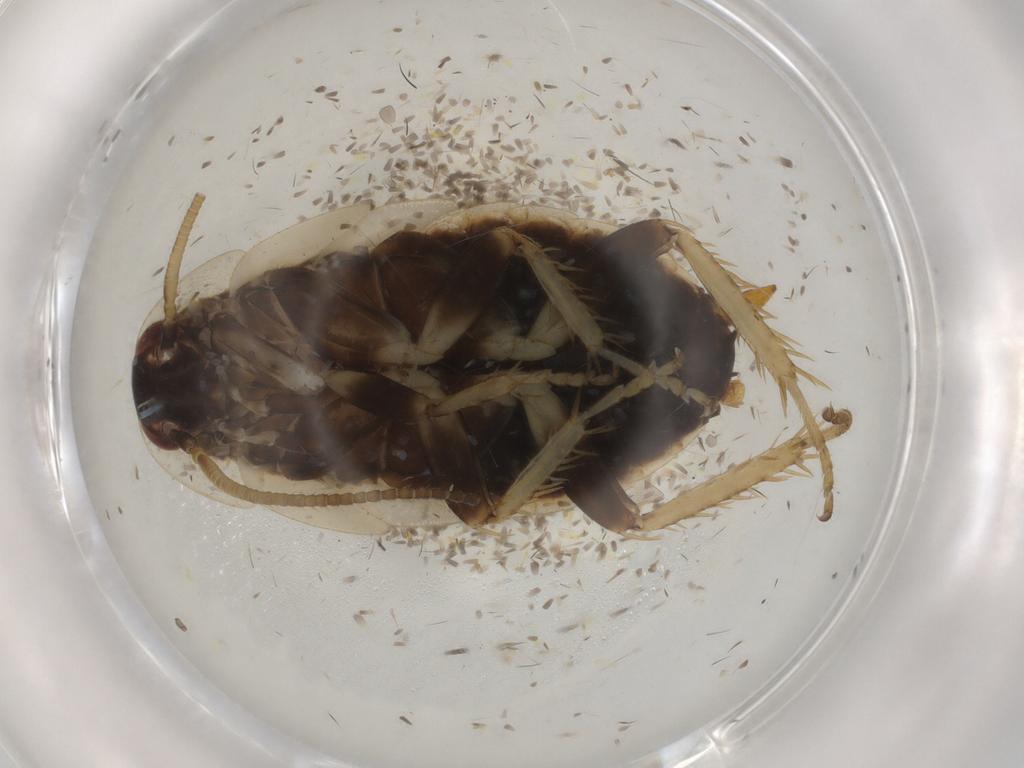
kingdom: Animalia
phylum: Arthropoda
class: Insecta
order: Blattodea
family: Ectobiidae
